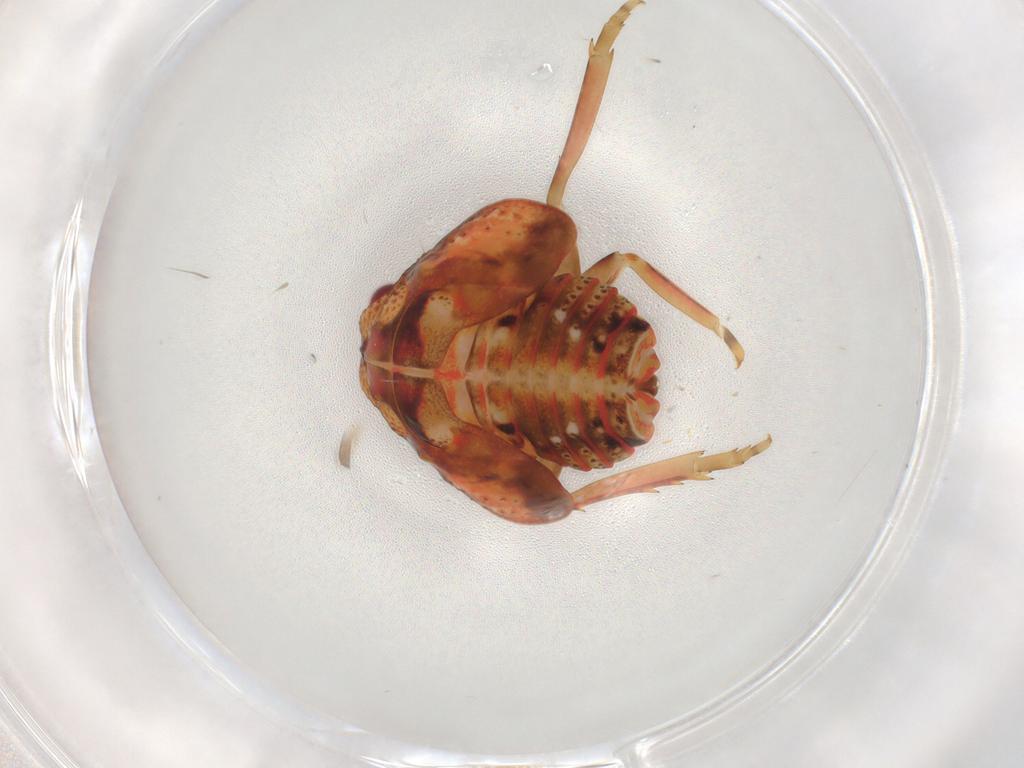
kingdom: Animalia
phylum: Arthropoda
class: Insecta
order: Hemiptera
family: Flatidae
